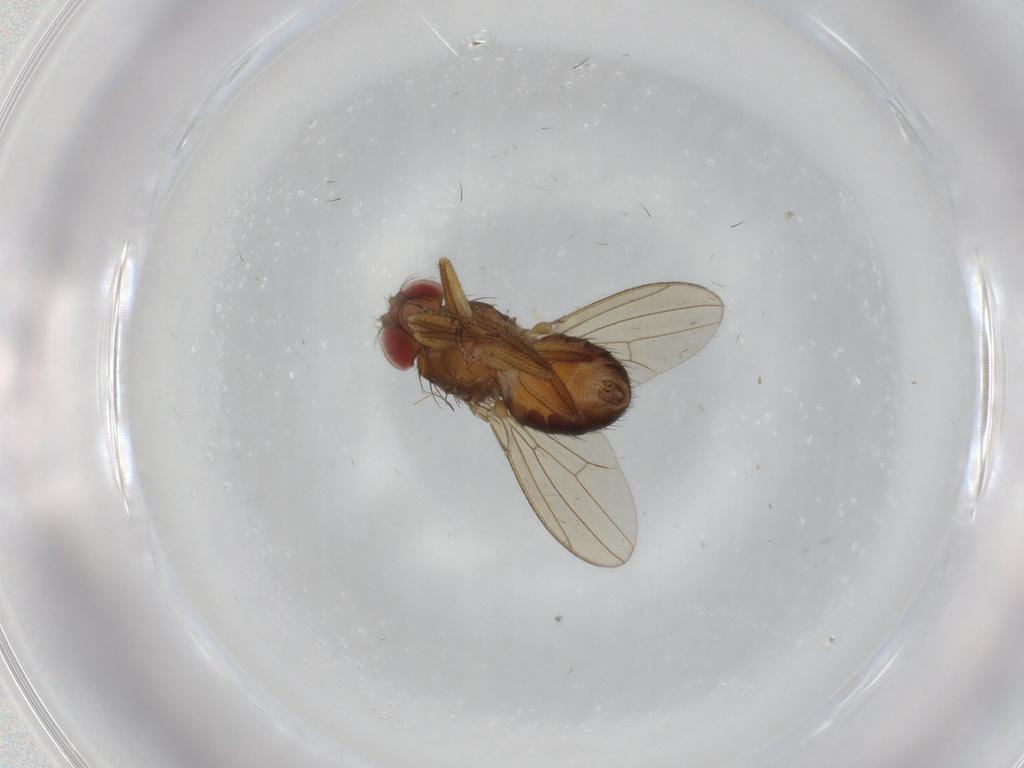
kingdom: Animalia
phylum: Arthropoda
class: Insecta
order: Diptera
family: Drosophilidae
